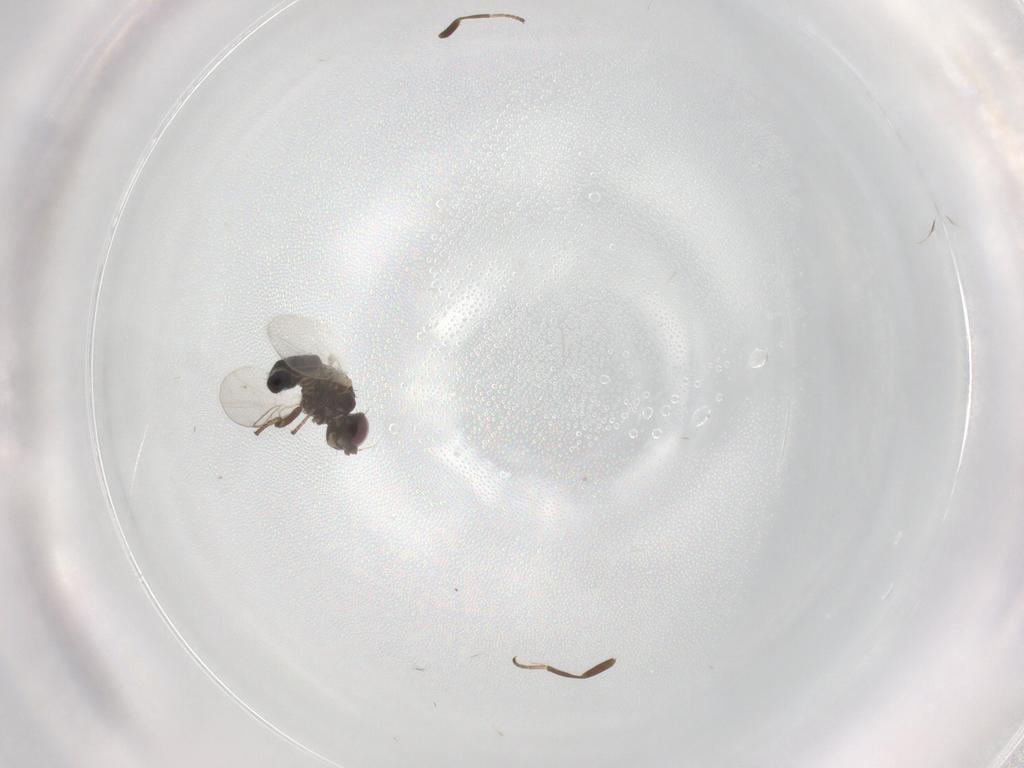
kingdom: Animalia
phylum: Arthropoda
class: Insecta
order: Diptera
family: Agromyzidae
